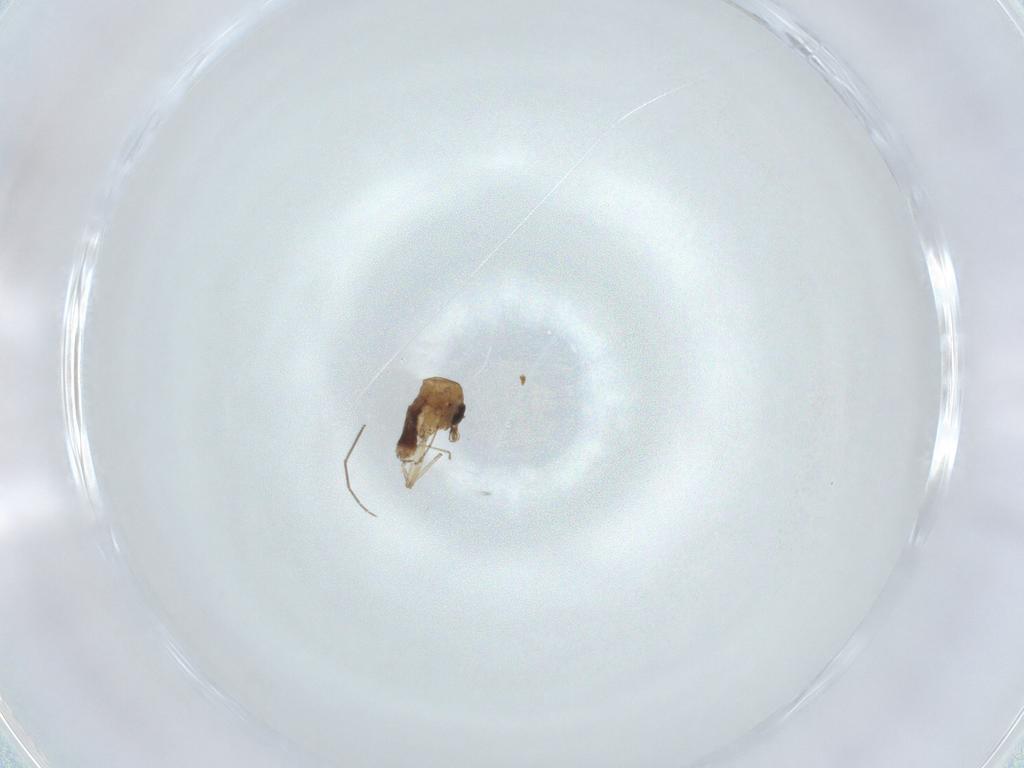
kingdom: Animalia
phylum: Arthropoda
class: Insecta
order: Diptera
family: Ceratopogonidae
